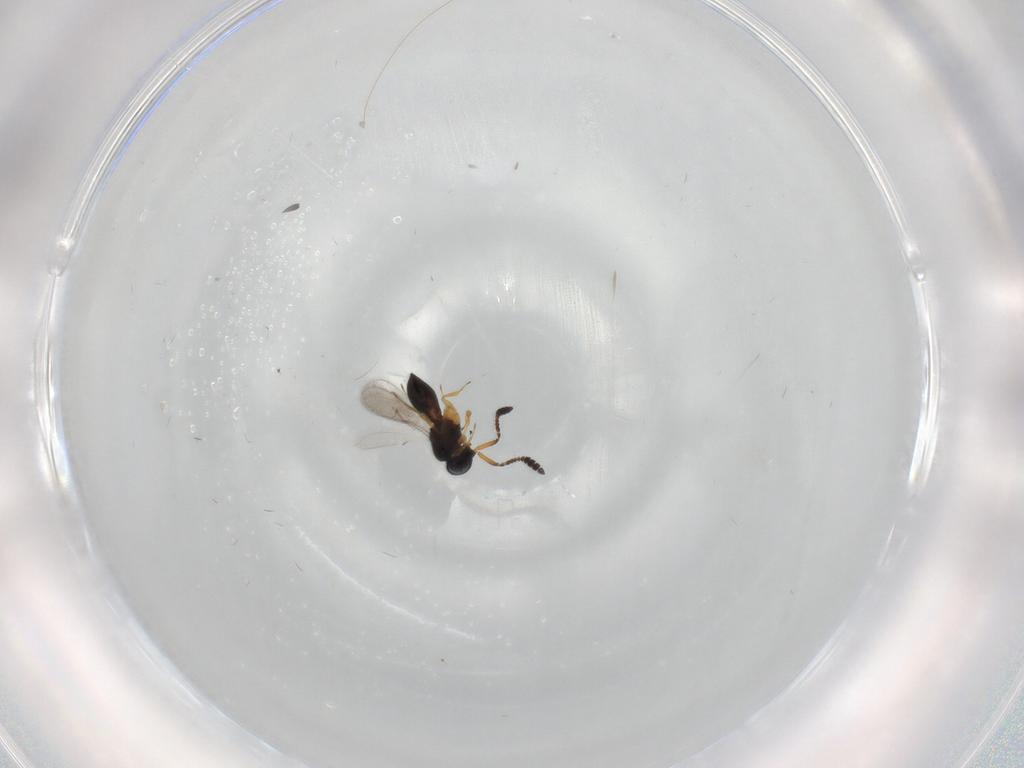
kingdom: Animalia
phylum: Arthropoda
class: Insecta
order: Hymenoptera
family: Scelionidae
